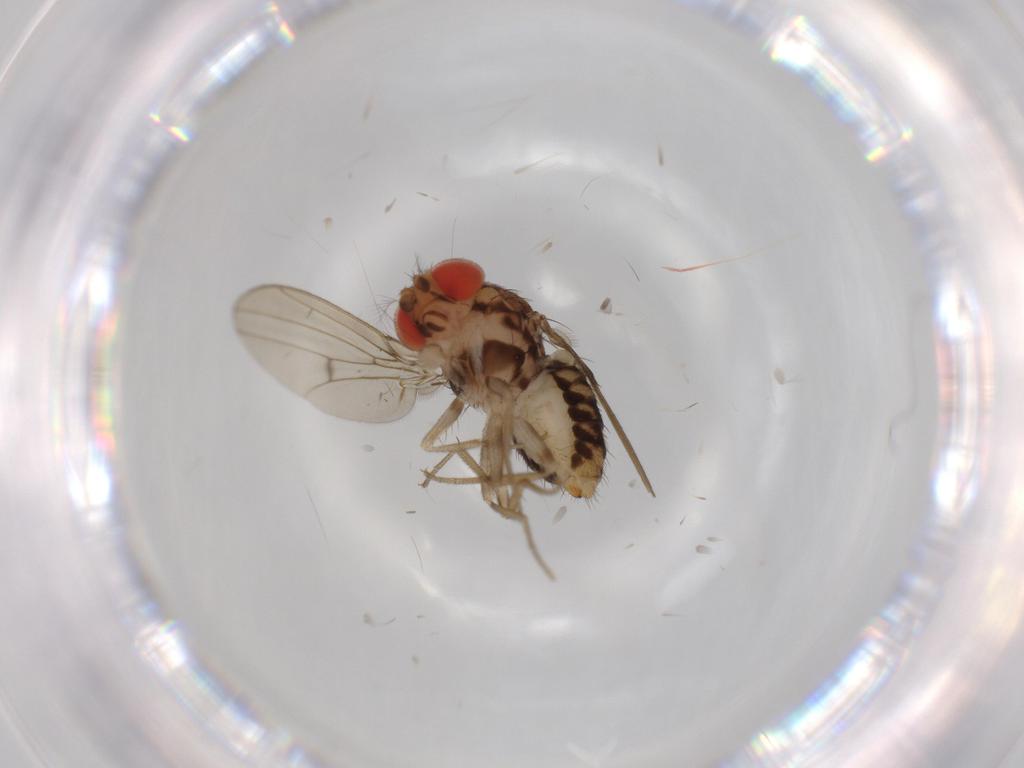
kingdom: Animalia
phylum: Arthropoda
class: Insecta
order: Diptera
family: Drosophilidae
